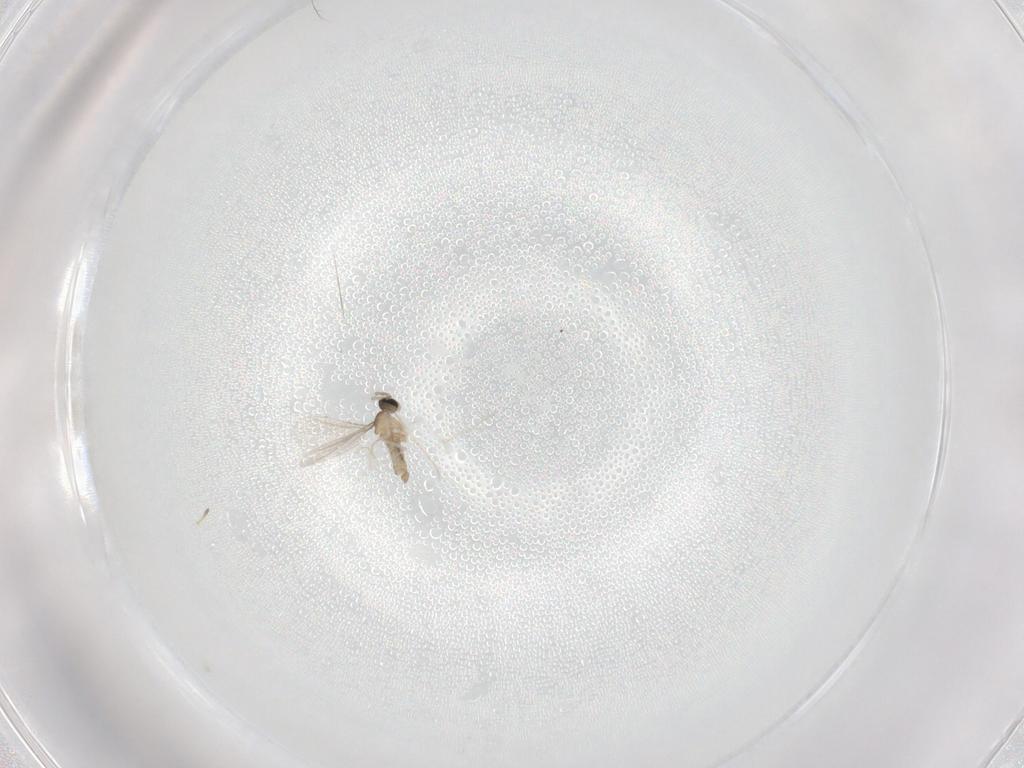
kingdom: Animalia
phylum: Arthropoda
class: Insecta
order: Diptera
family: Cecidomyiidae
